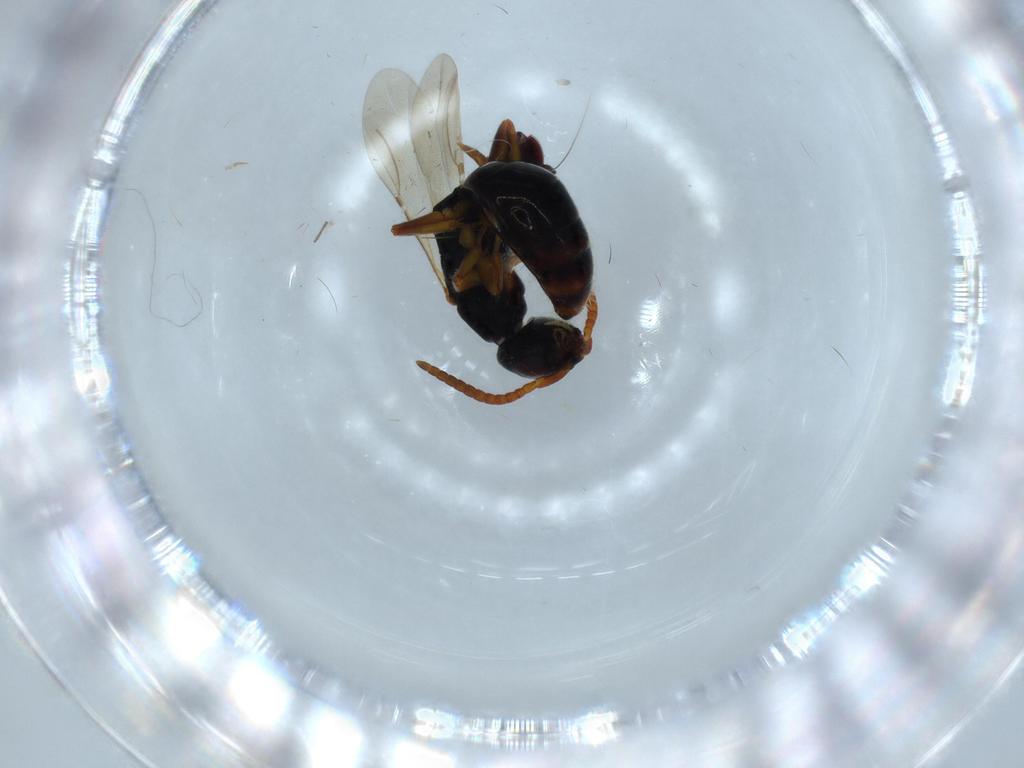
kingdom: Animalia
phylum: Arthropoda
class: Insecta
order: Hymenoptera
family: Bethylidae
